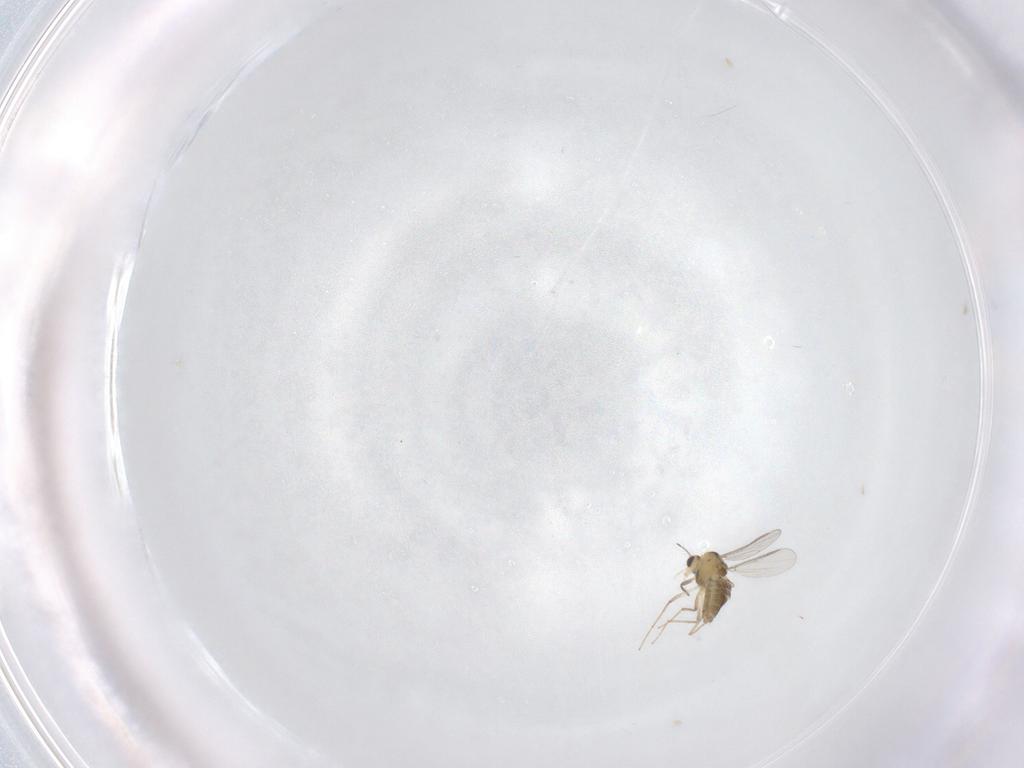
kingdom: Animalia
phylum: Arthropoda
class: Insecta
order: Diptera
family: Chironomidae
